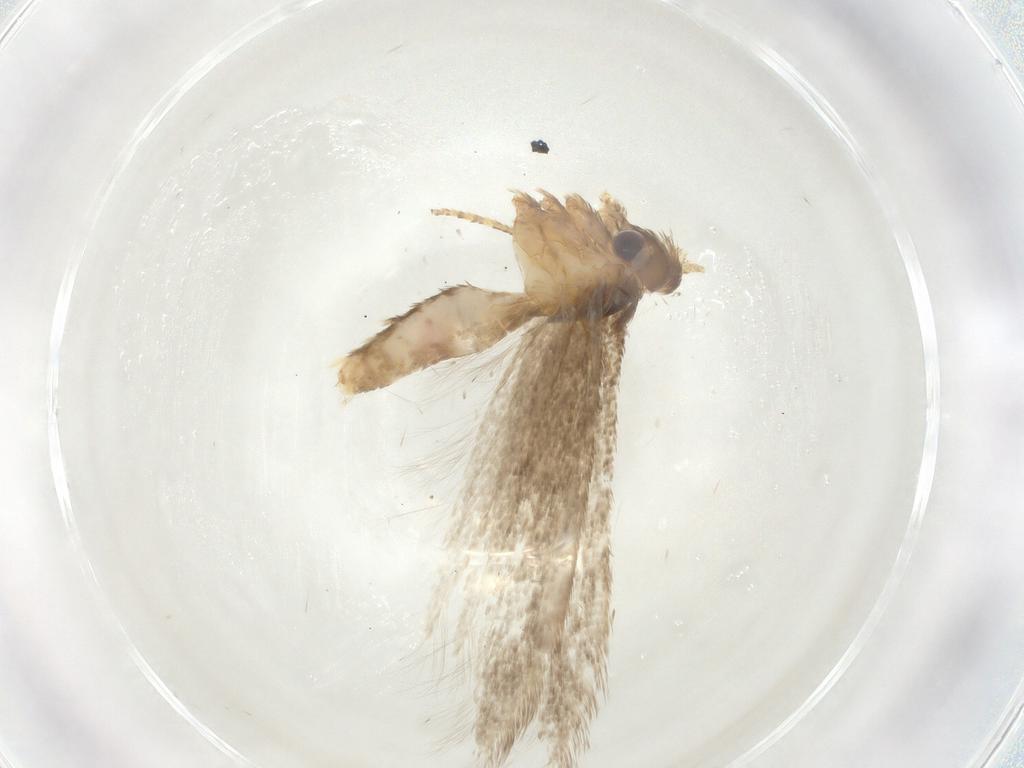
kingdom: Animalia
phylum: Arthropoda
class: Insecta
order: Lepidoptera
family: Blastobasidae
